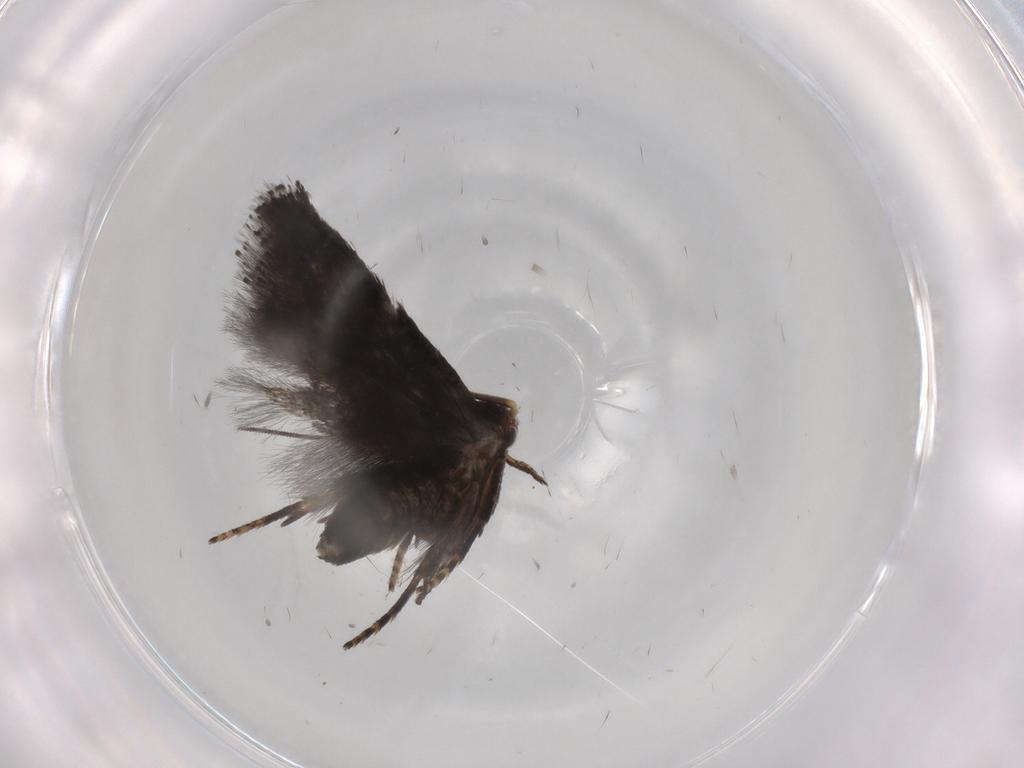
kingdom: Animalia
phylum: Arthropoda
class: Insecta
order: Lepidoptera
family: Pieridae
